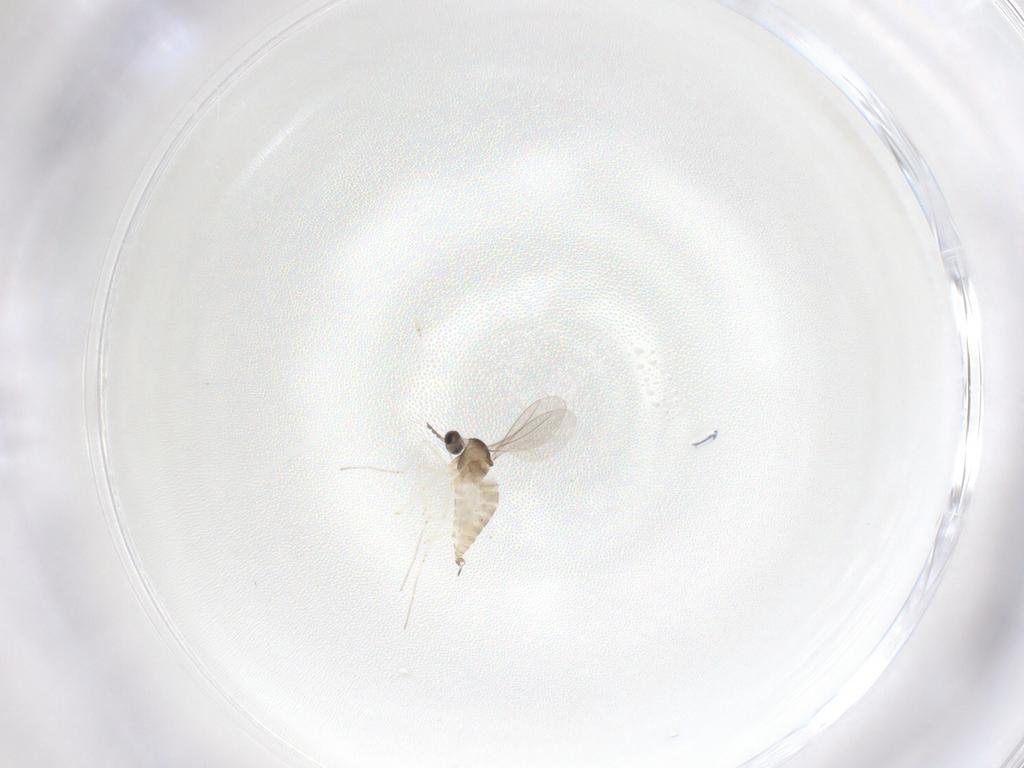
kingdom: Animalia
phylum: Arthropoda
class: Insecta
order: Diptera
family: Cecidomyiidae
